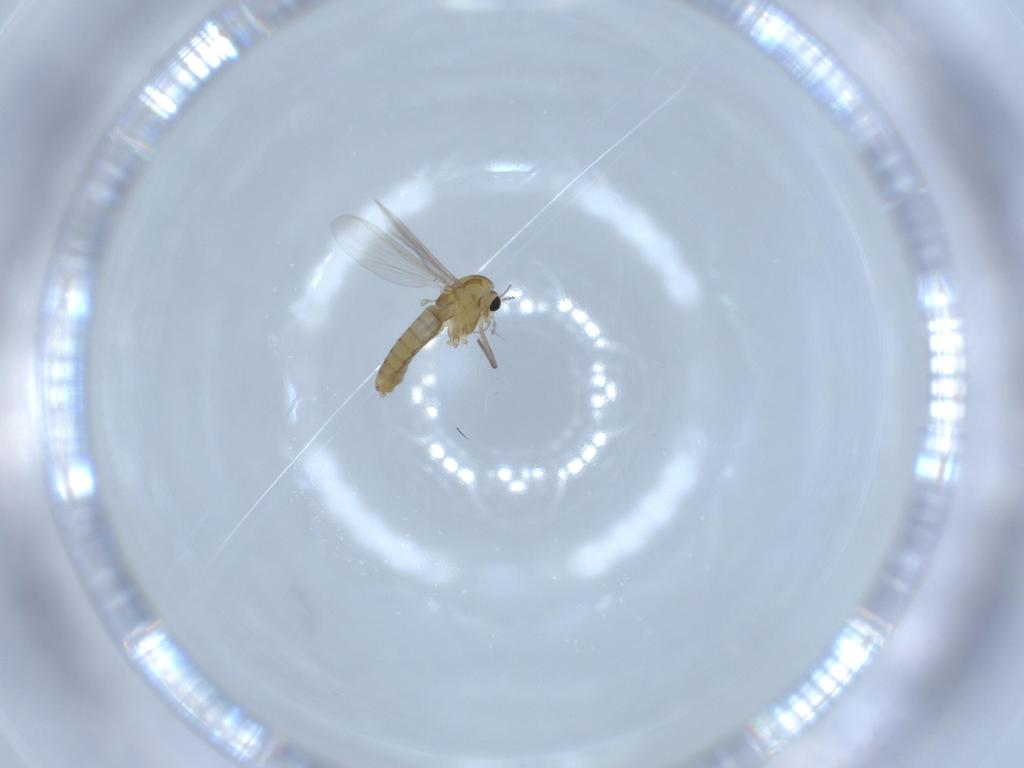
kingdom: Animalia
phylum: Arthropoda
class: Insecta
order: Diptera
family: Chironomidae
